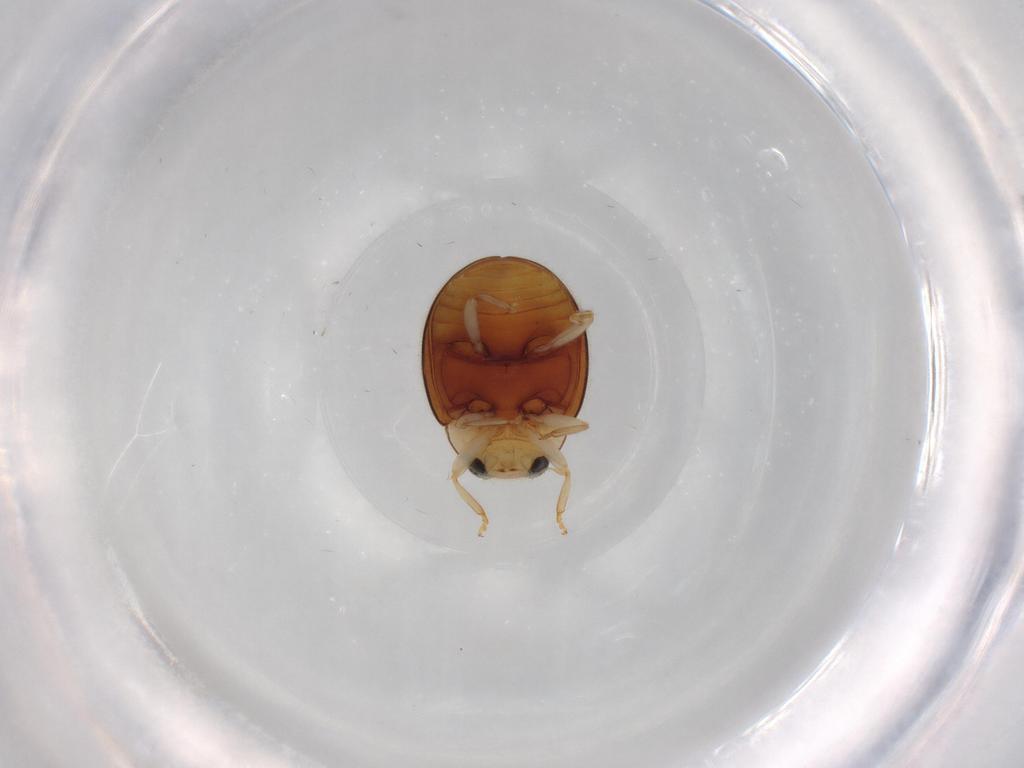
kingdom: Animalia
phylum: Arthropoda
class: Insecta
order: Coleoptera
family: Coccinellidae
